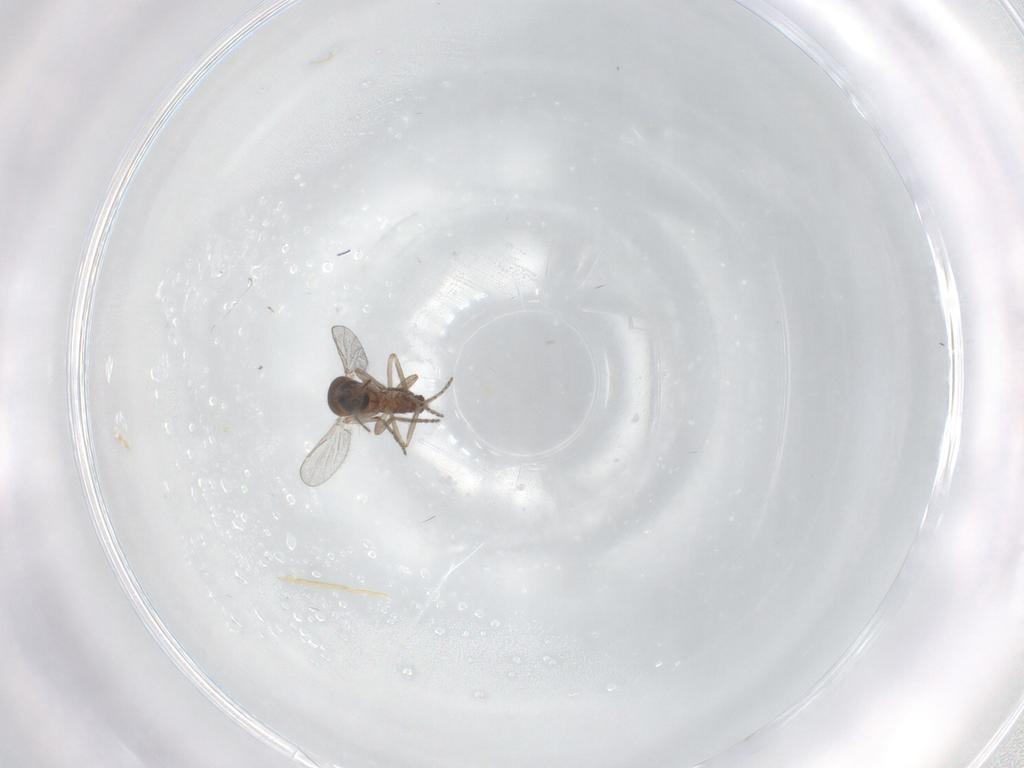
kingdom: Animalia
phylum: Arthropoda
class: Insecta
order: Diptera
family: Ceratopogonidae
